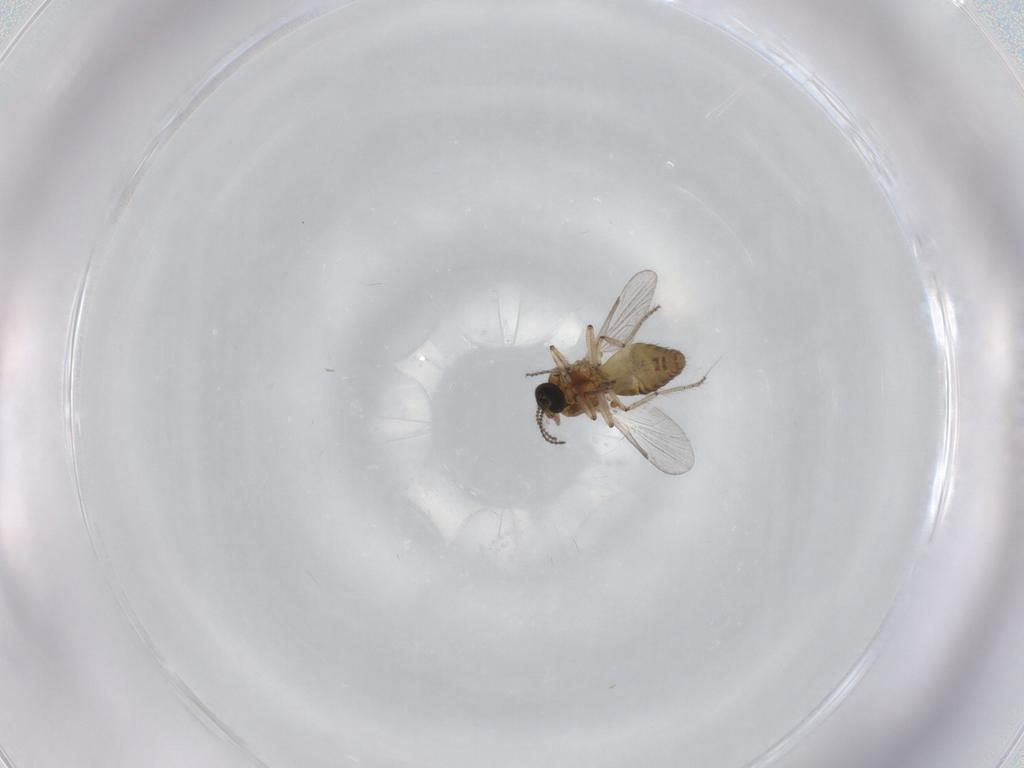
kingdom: Animalia
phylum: Arthropoda
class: Insecta
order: Diptera
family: Ceratopogonidae
